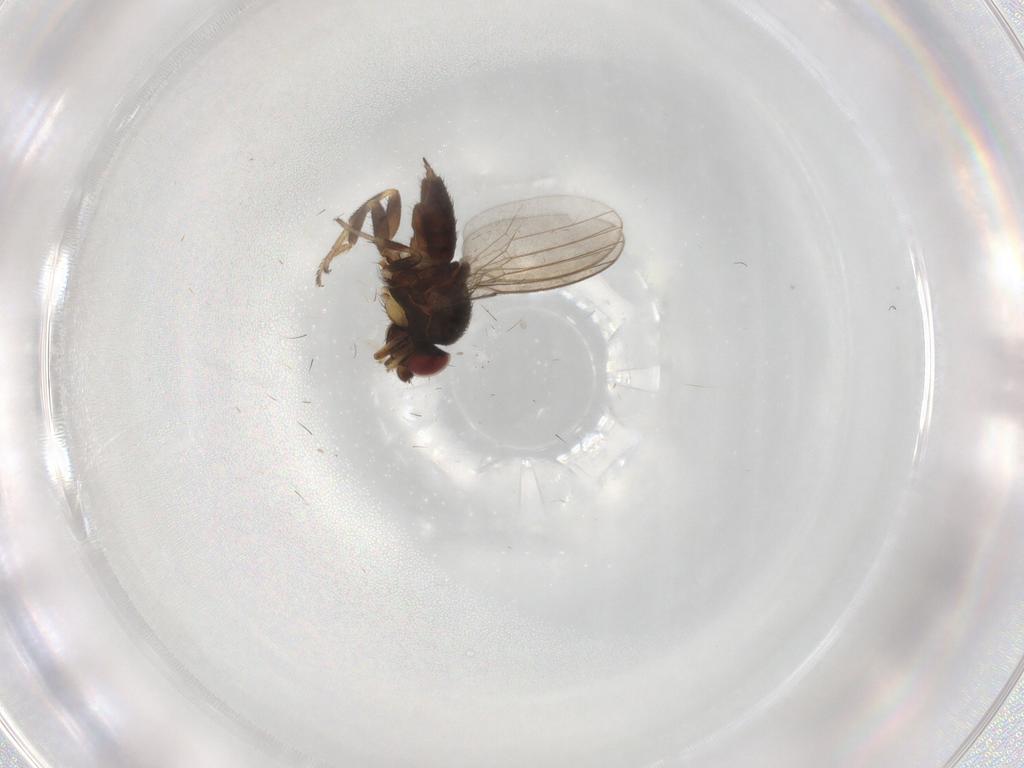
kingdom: Animalia
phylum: Arthropoda
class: Insecta
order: Diptera
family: Milichiidae
